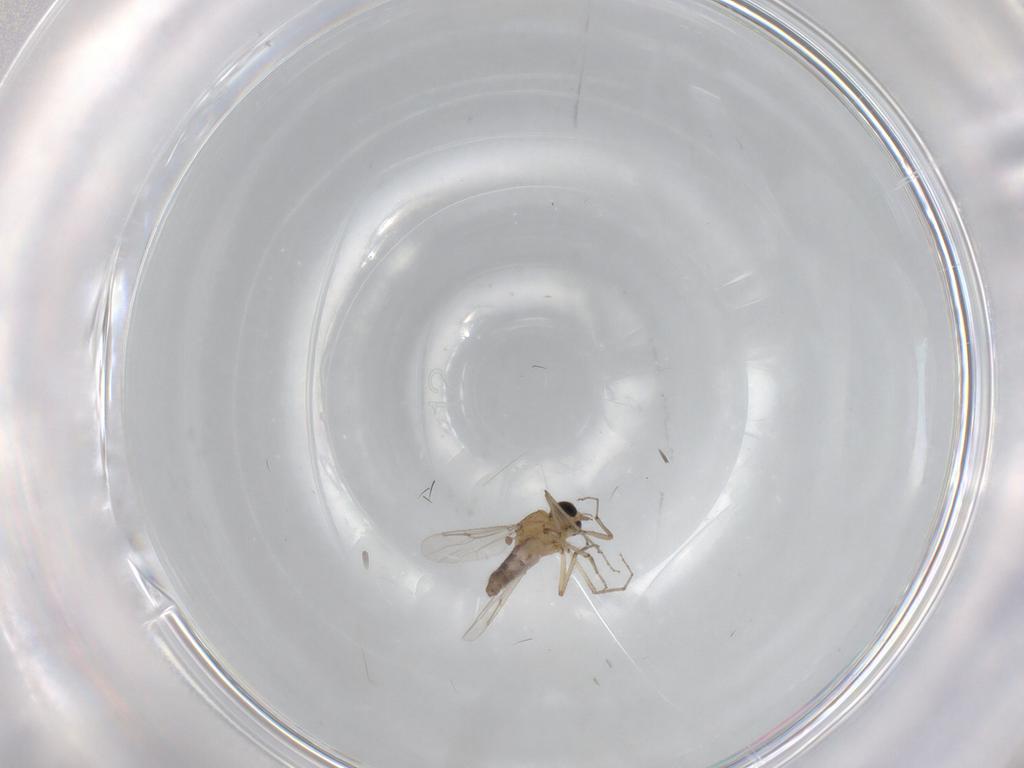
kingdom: Animalia
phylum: Arthropoda
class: Insecta
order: Diptera
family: Ceratopogonidae
